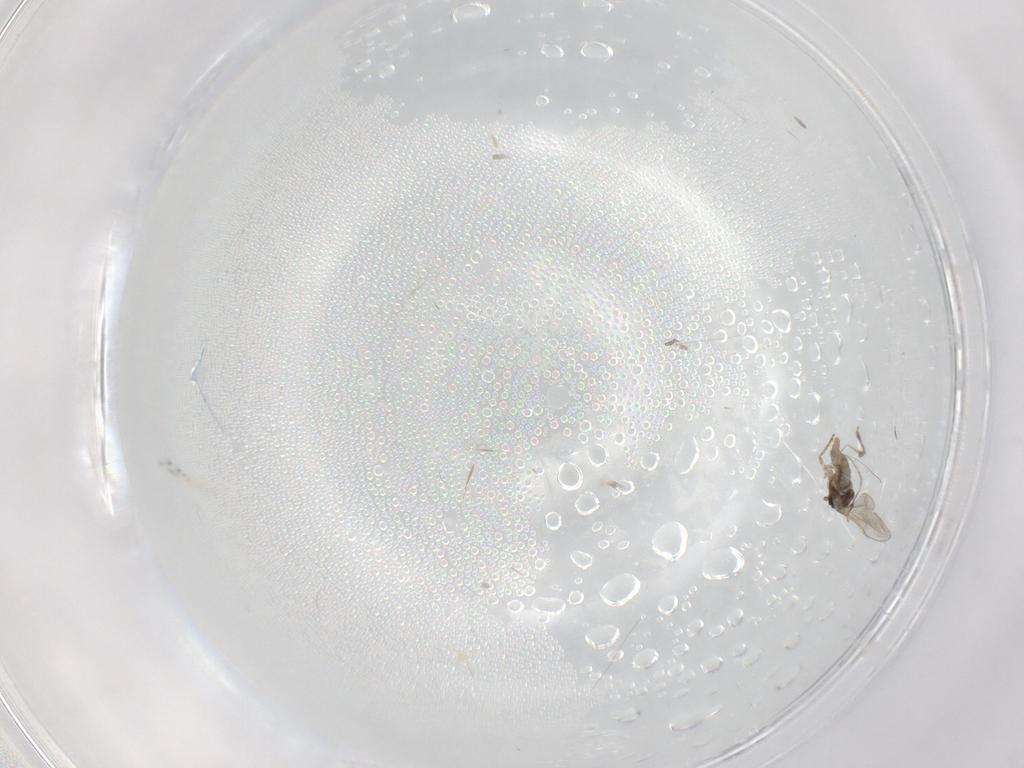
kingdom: Animalia
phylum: Arthropoda
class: Insecta
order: Diptera
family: Cecidomyiidae
